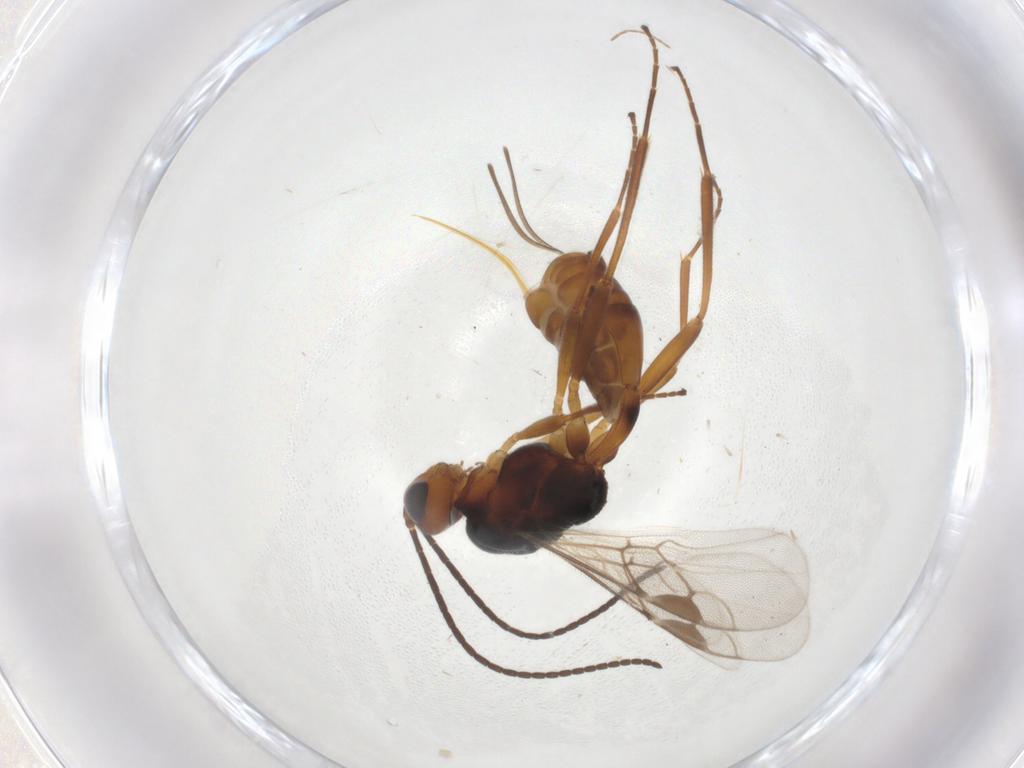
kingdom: Animalia
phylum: Arthropoda
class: Insecta
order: Hymenoptera
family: Braconidae
